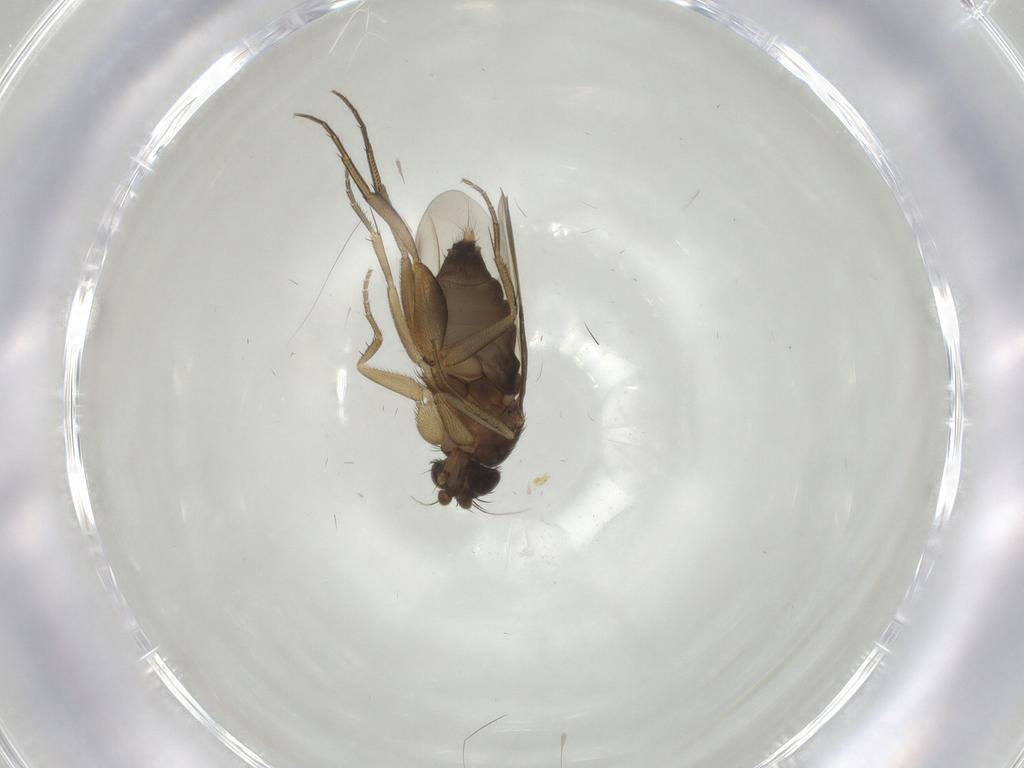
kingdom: Animalia
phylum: Arthropoda
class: Insecta
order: Diptera
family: Phoridae
